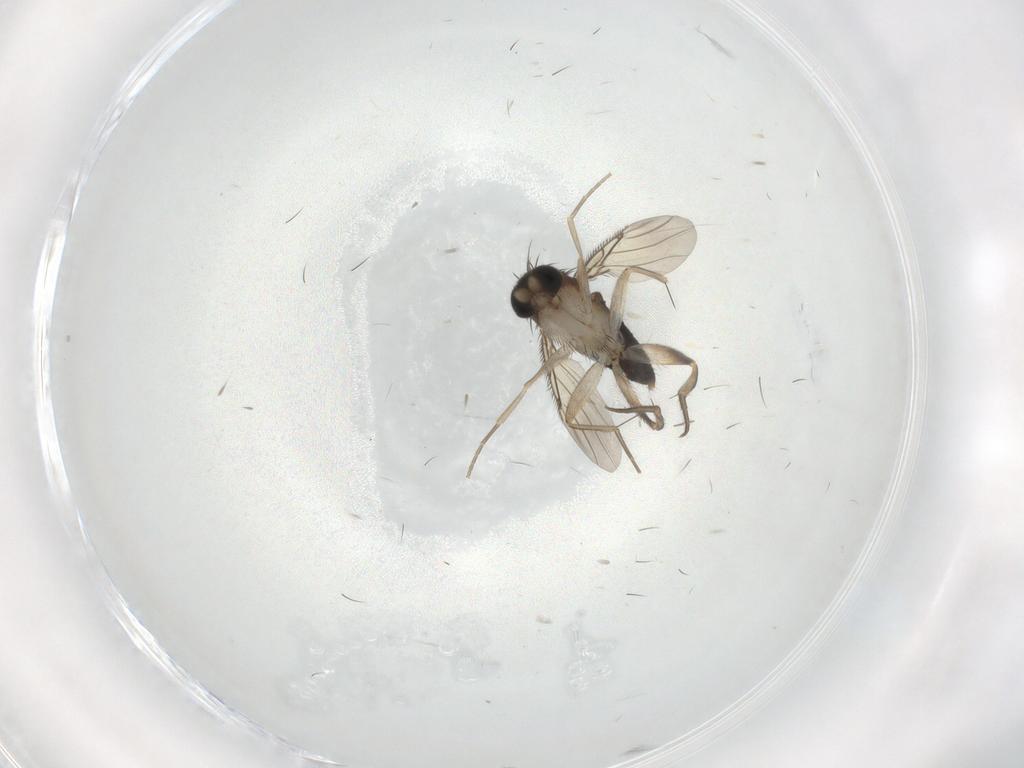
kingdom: Animalia
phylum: Arthropoda
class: Insecta
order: Diptera
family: Phoridae
